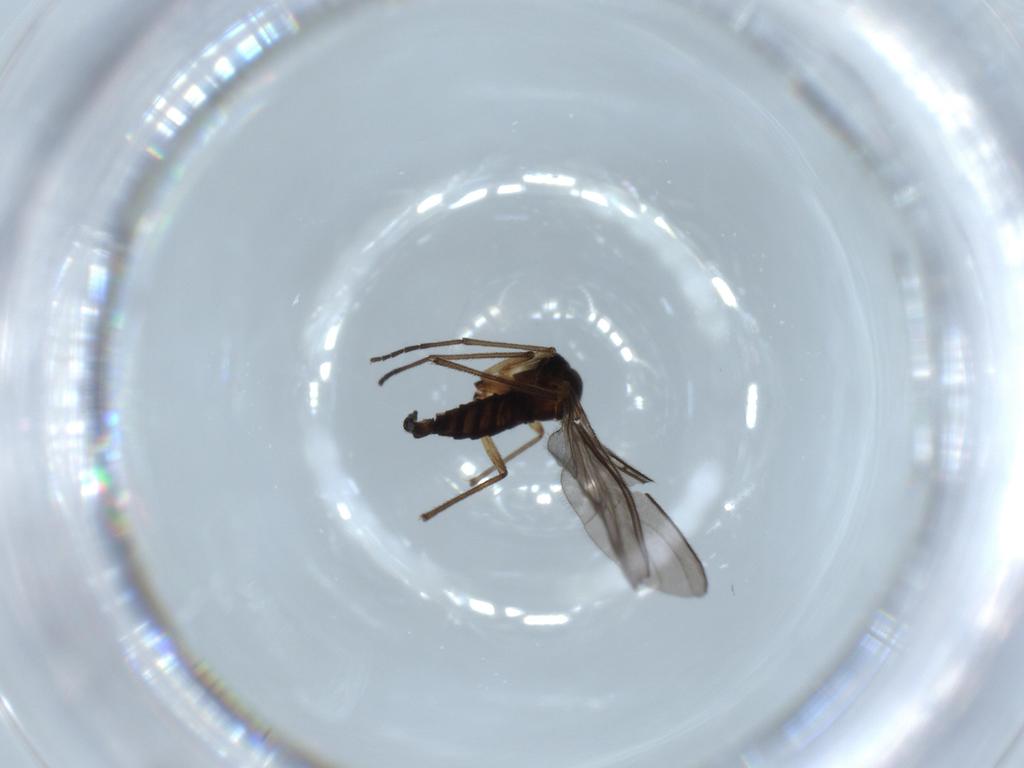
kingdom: Animalia
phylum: Arthropoda
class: Insecta
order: Diptera
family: Sciaridae
